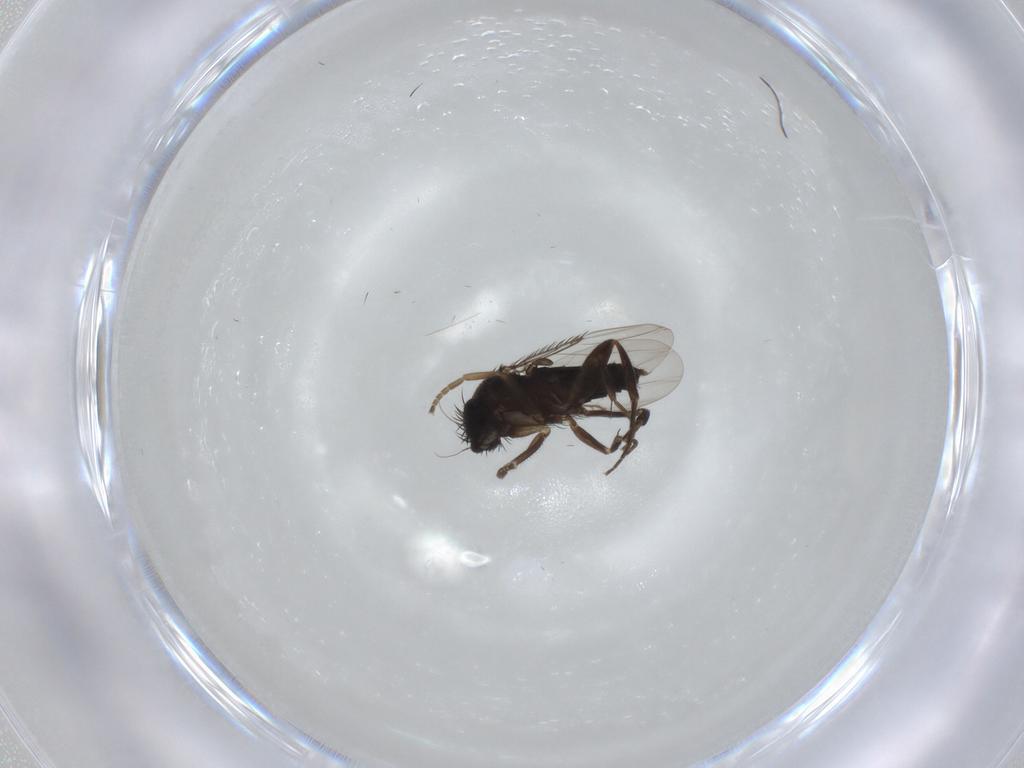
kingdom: Animalia
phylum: Arthropoda
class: Insecta
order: Diptera
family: Phoridae
